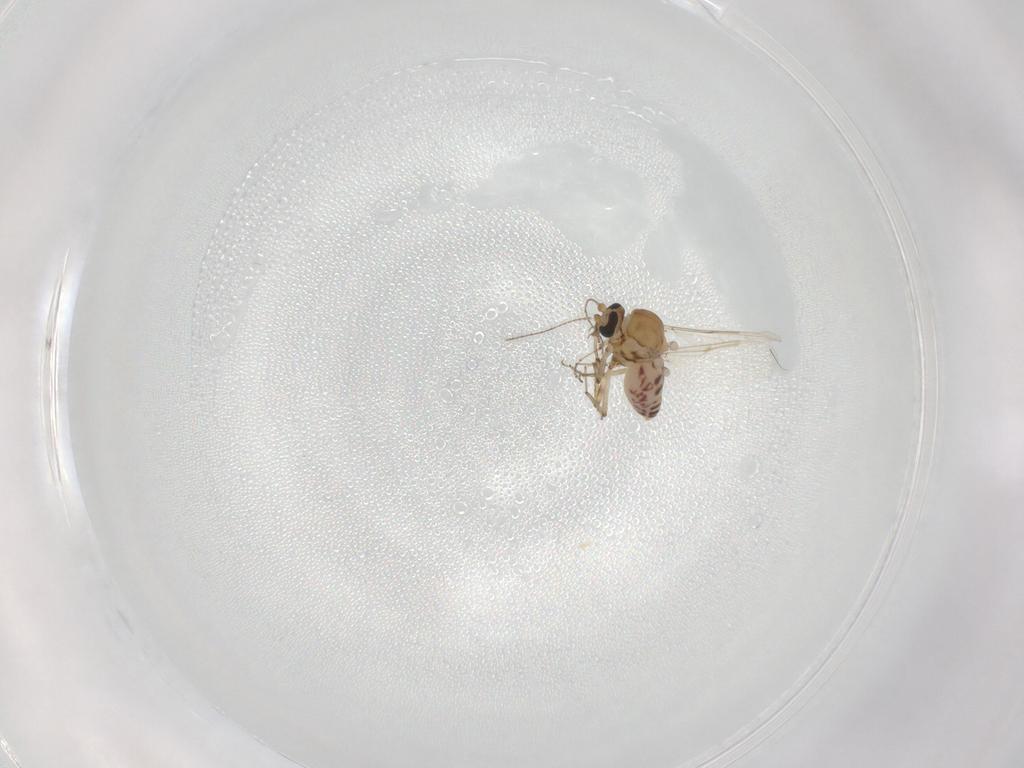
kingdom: Animalia
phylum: Arthropoda
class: Insecta
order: Diptera
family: Ceratopogonidae
